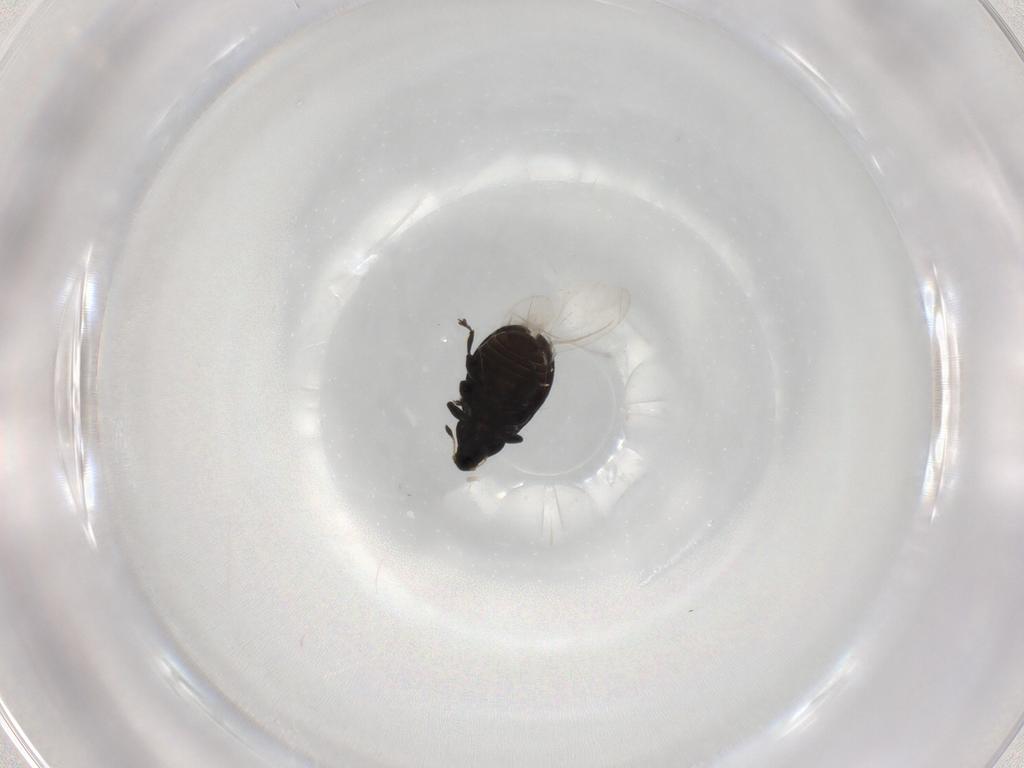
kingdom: Animalia
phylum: Arthropoda
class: Insecta
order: Coleoptera
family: Curculionidae
